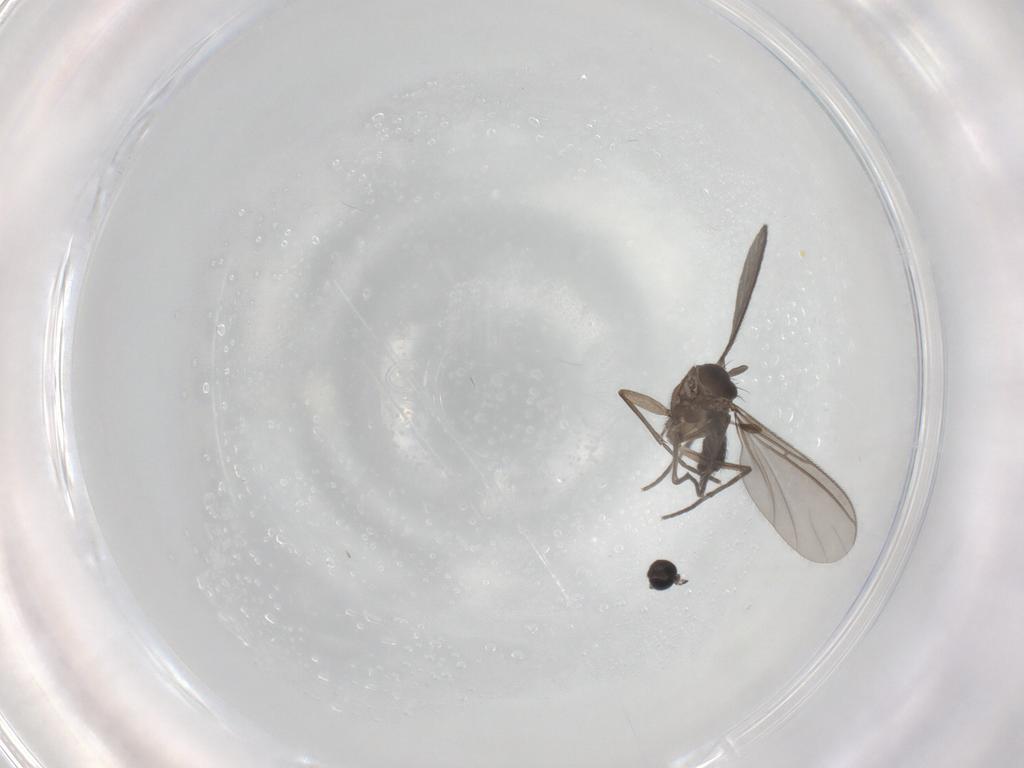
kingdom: Animalia
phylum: Arthropoda
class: Insecta
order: Diptera
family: Sciaridae
